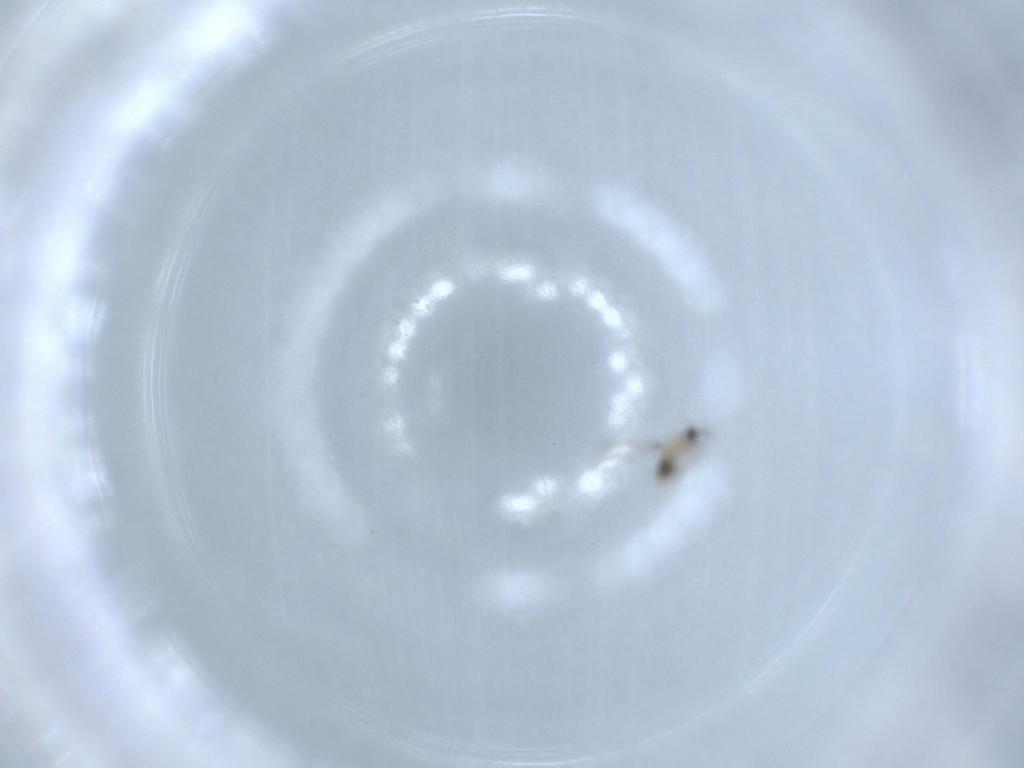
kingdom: Animalia
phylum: Arthropoda
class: Insecta
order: Hymenoptera
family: Mymaridae
